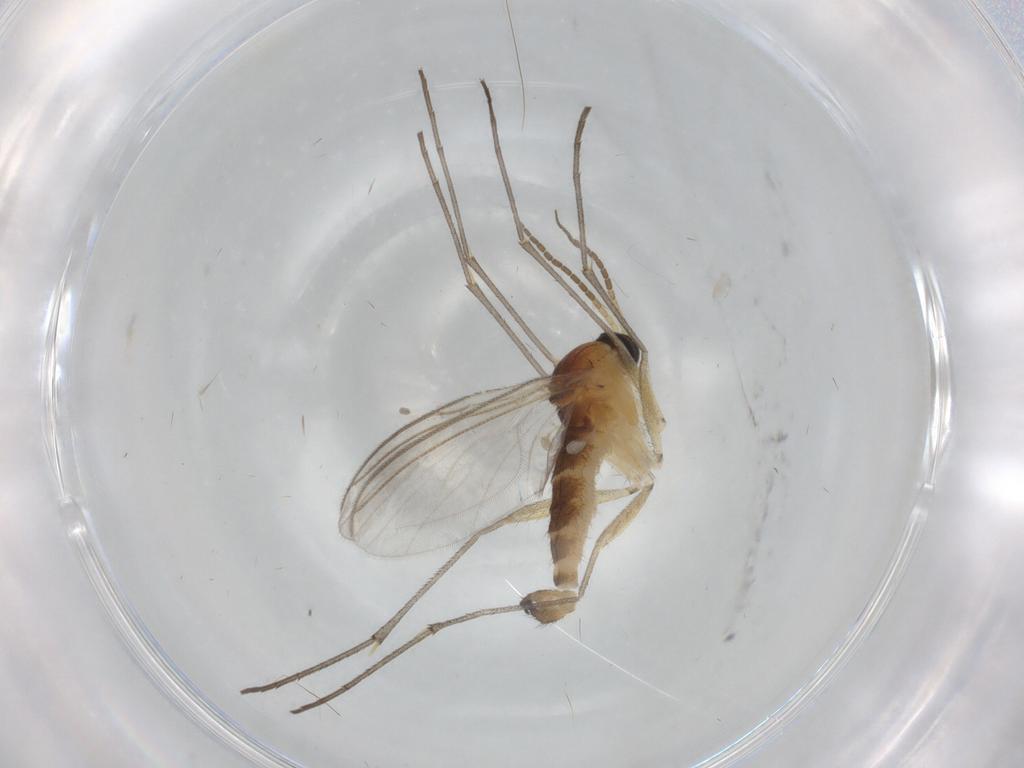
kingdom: Animalia
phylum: Arthropoda
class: Insecta
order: Diptera
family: Sciaridae
